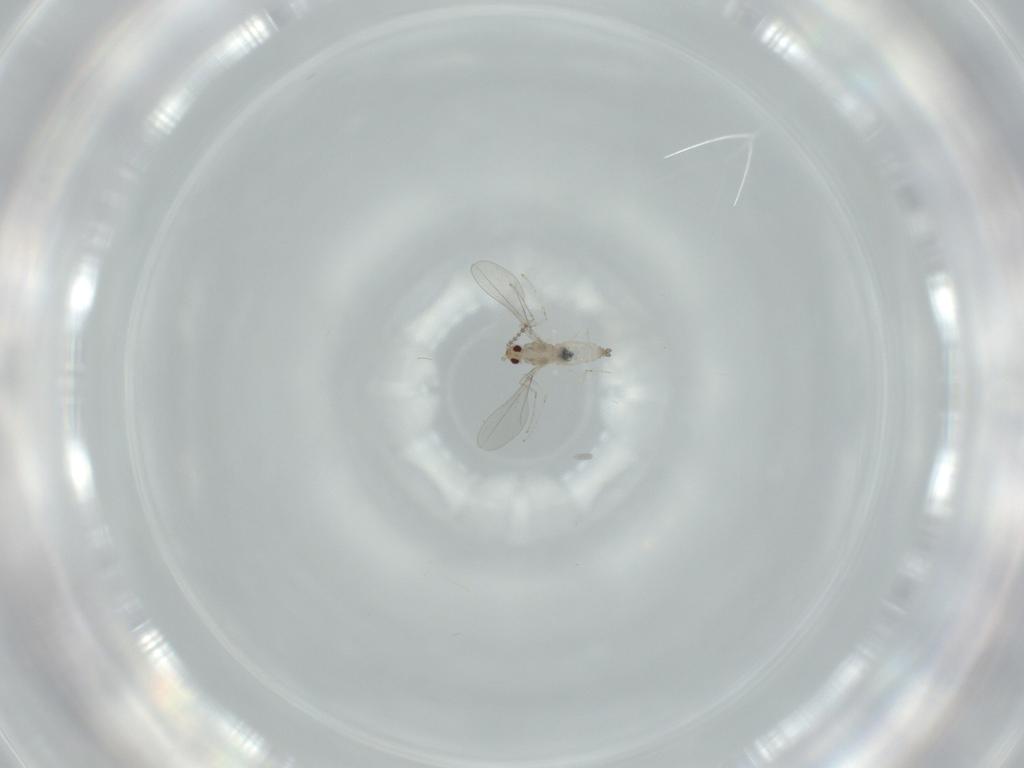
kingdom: Animalia
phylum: Arthropoda
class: Insecta
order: Diptera
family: Cecidomyiidae
